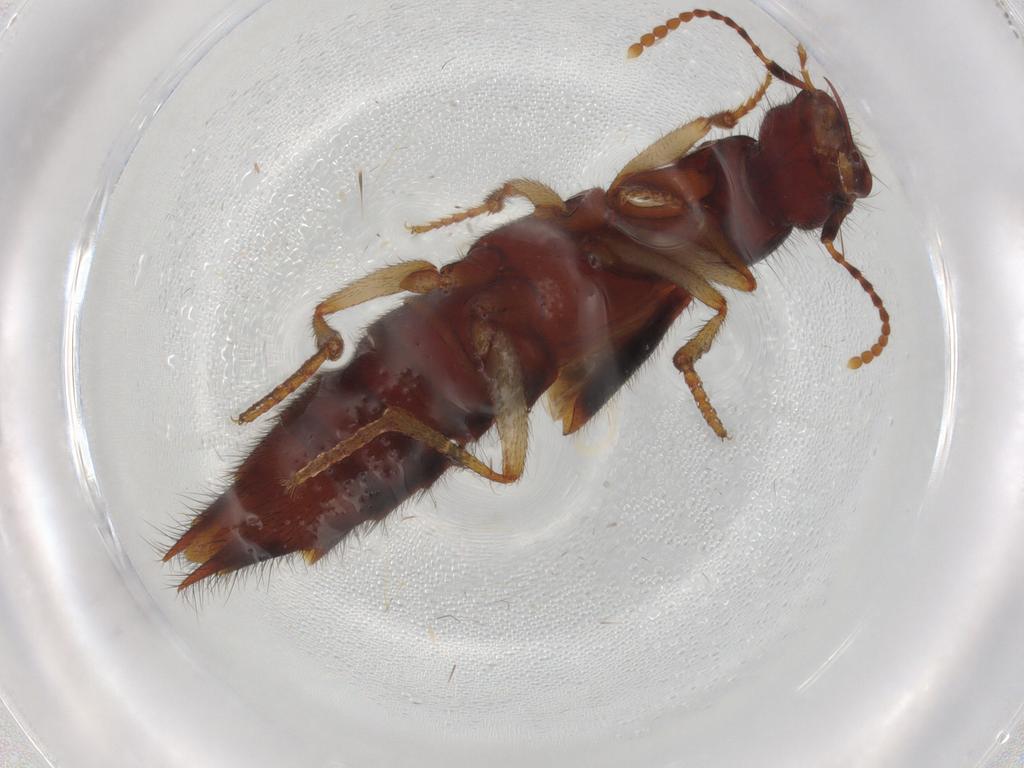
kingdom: Animalia
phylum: Arthropoda
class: Insecta
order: Coleoptera
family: Staphylinidae
